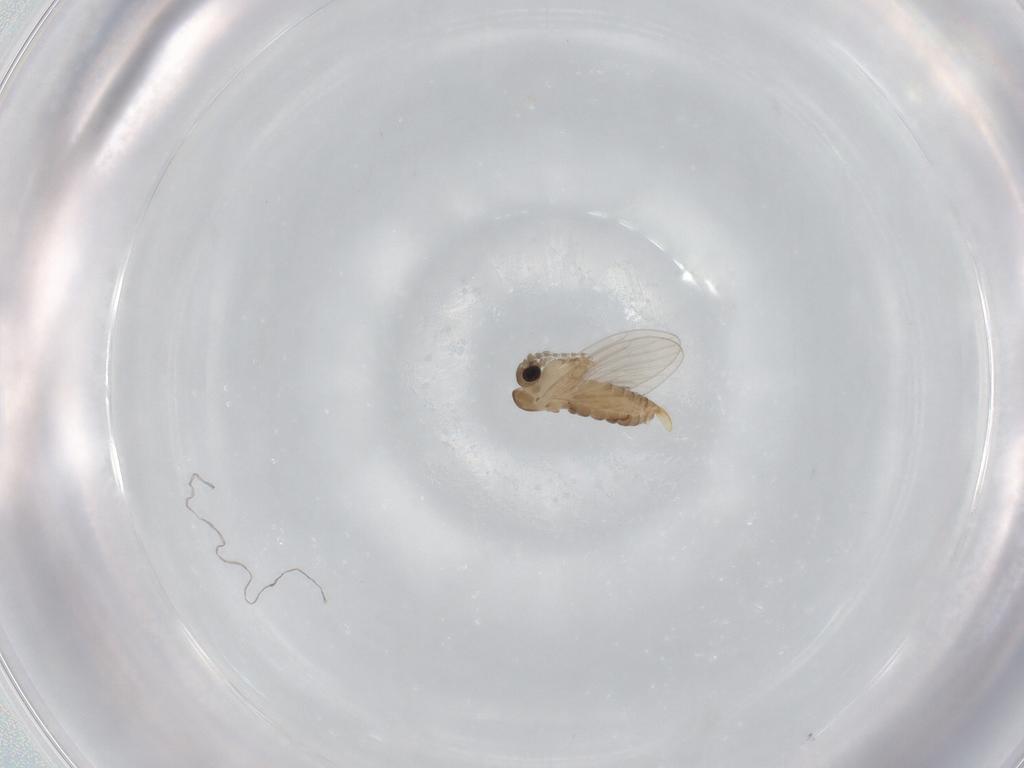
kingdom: Animalia
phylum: Arthropoda
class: Insecta
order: Diptera
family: Psychodidae
